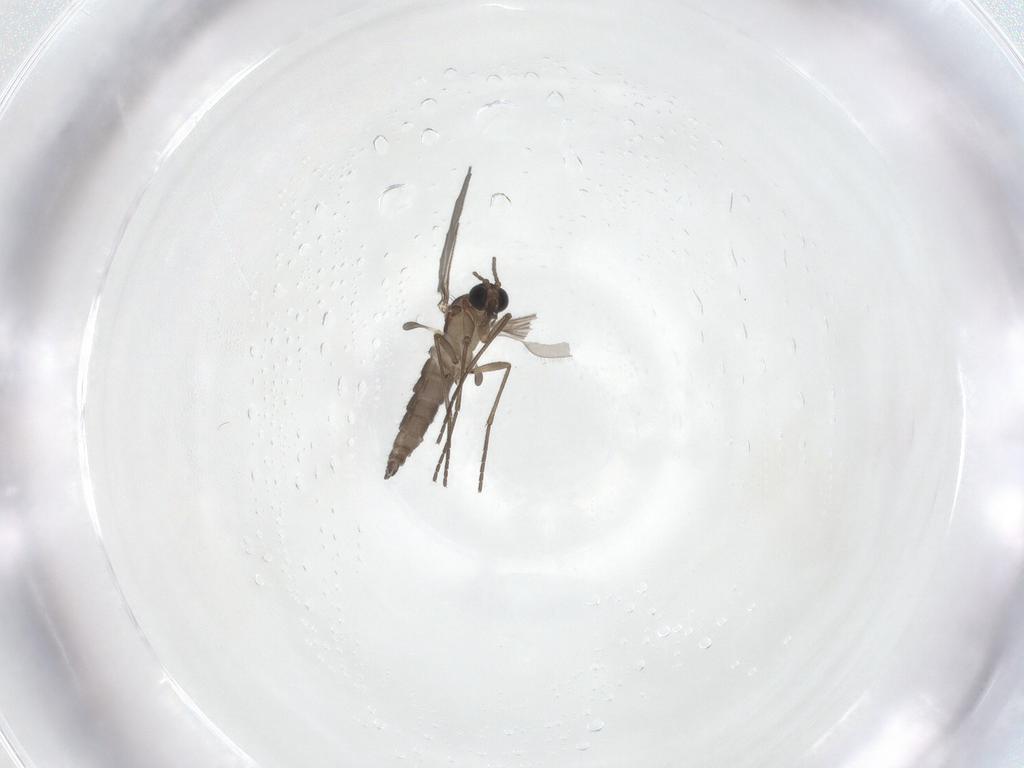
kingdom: Animalia
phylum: Arthropoda
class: Insecta
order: Diptera
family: Sciaridae
